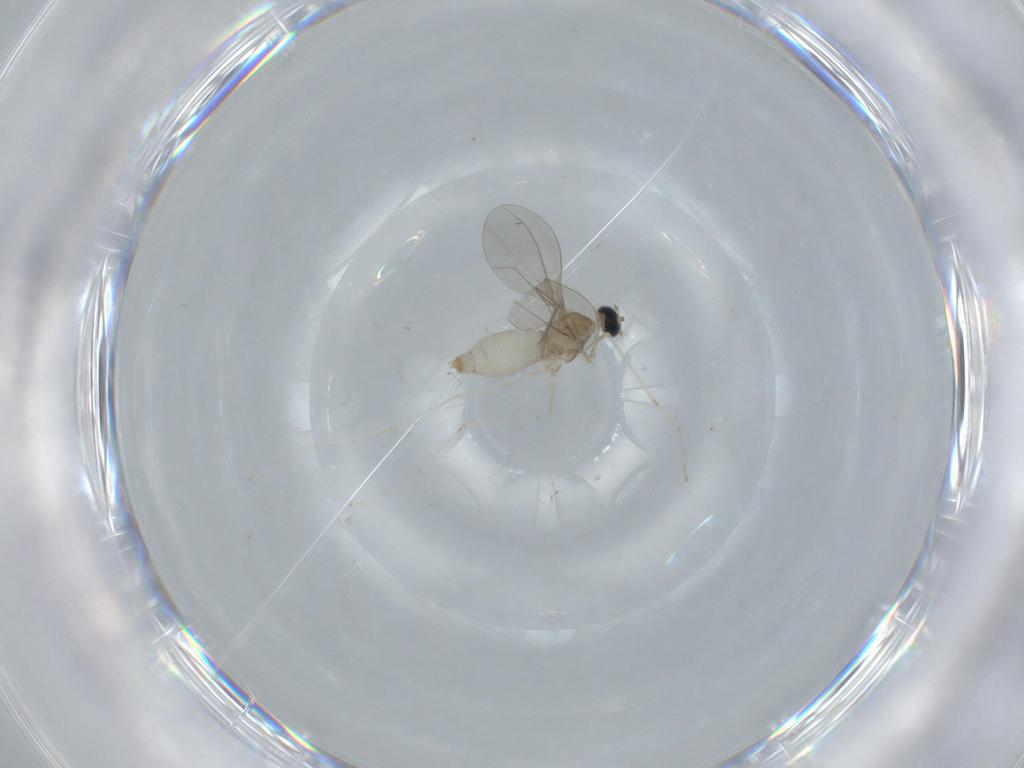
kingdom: Animalia
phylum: Arthropoda
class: Insecta
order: Diptera
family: Cecidomyiidae
